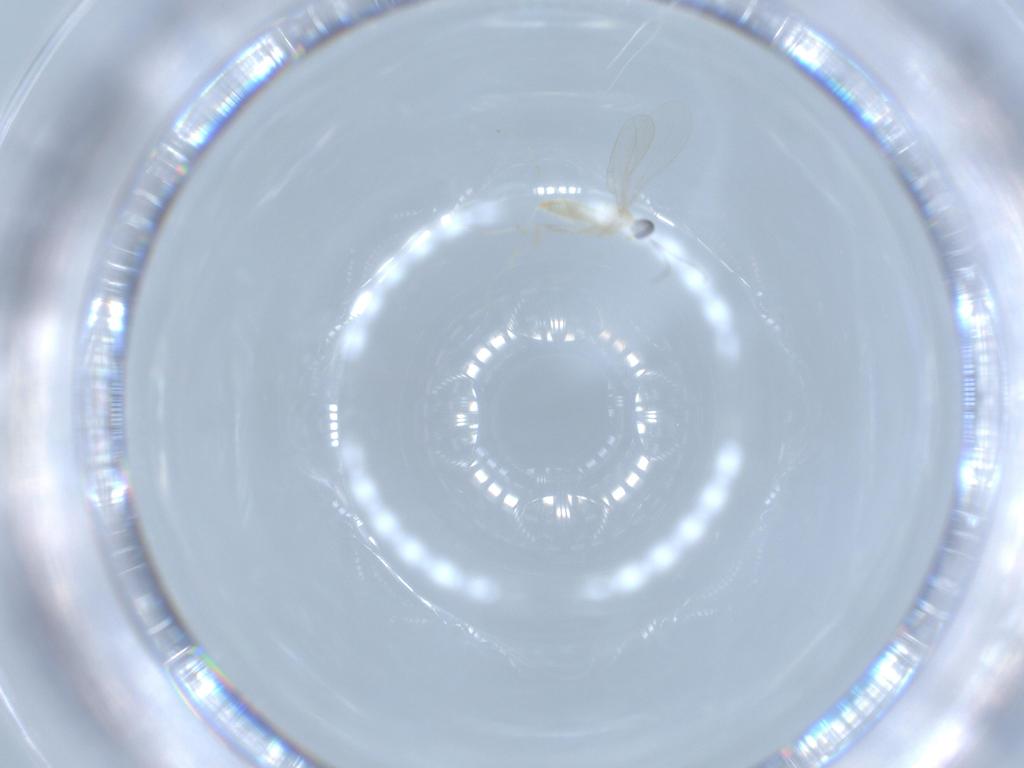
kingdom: Animalia
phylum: Arthropoda
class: Insecta
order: Diptera
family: Cecidomyiidae
